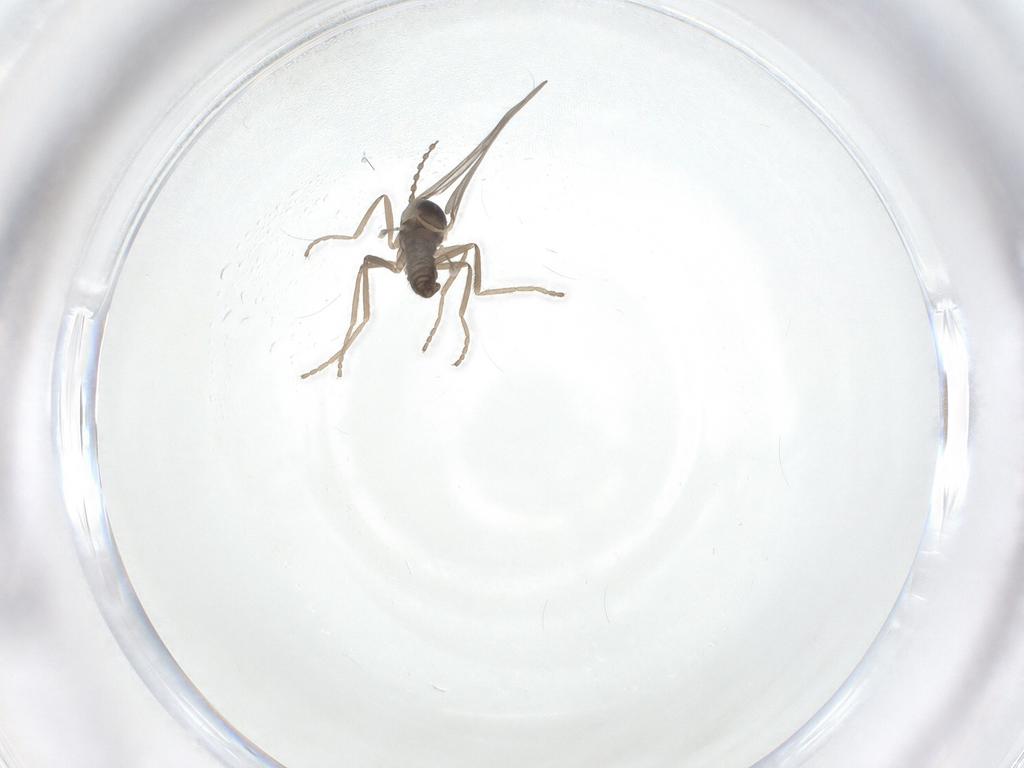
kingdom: Animalia
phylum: Arthropoda
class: Insecta
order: Diptera
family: Cecidomyiidae
